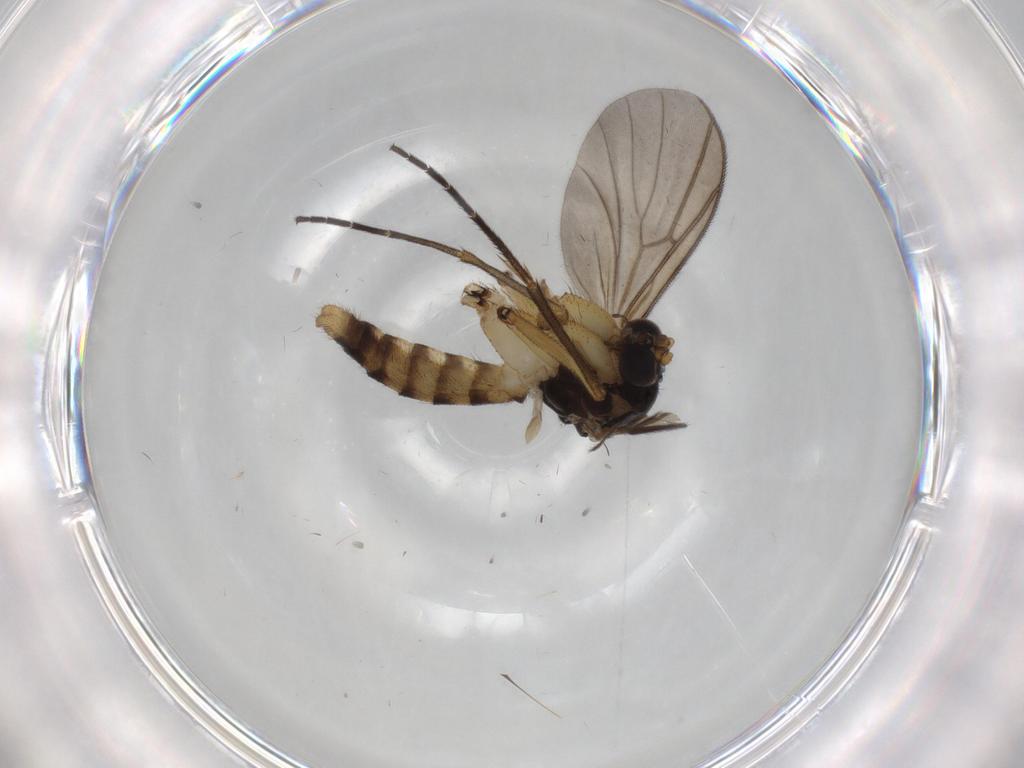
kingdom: Animalia
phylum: Arthropoda
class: Insecta
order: Diptera
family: Mycetophilidae
